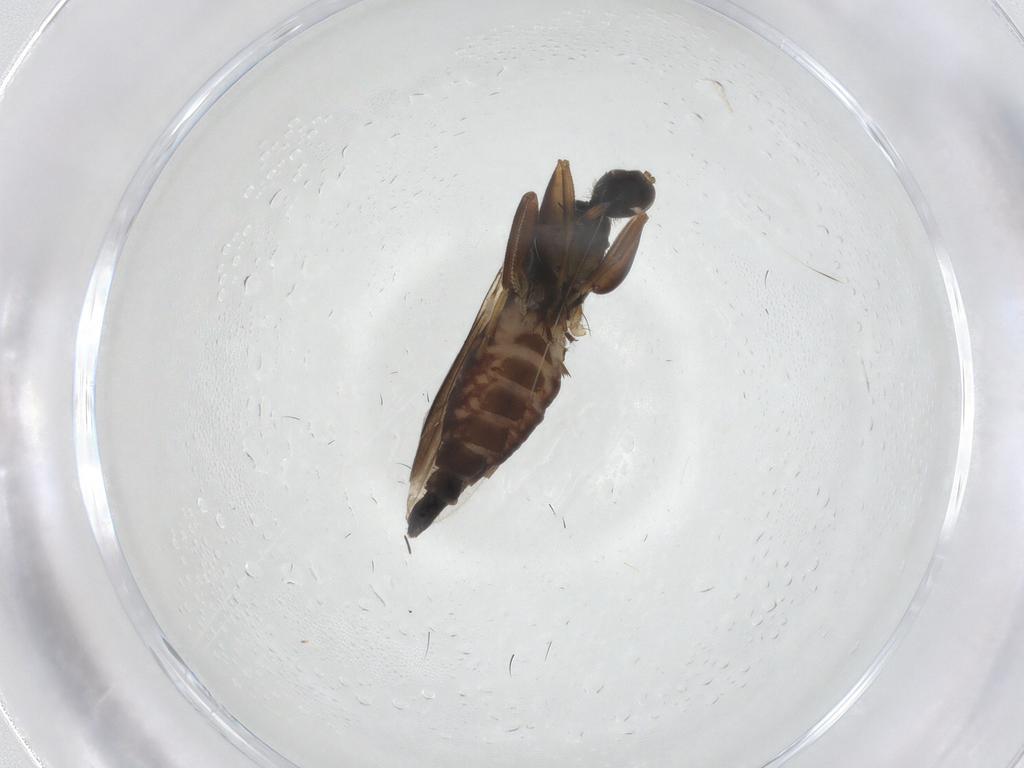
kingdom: Animalia
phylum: Arthropoda
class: Insecta
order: Diptera
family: Hybotidae
